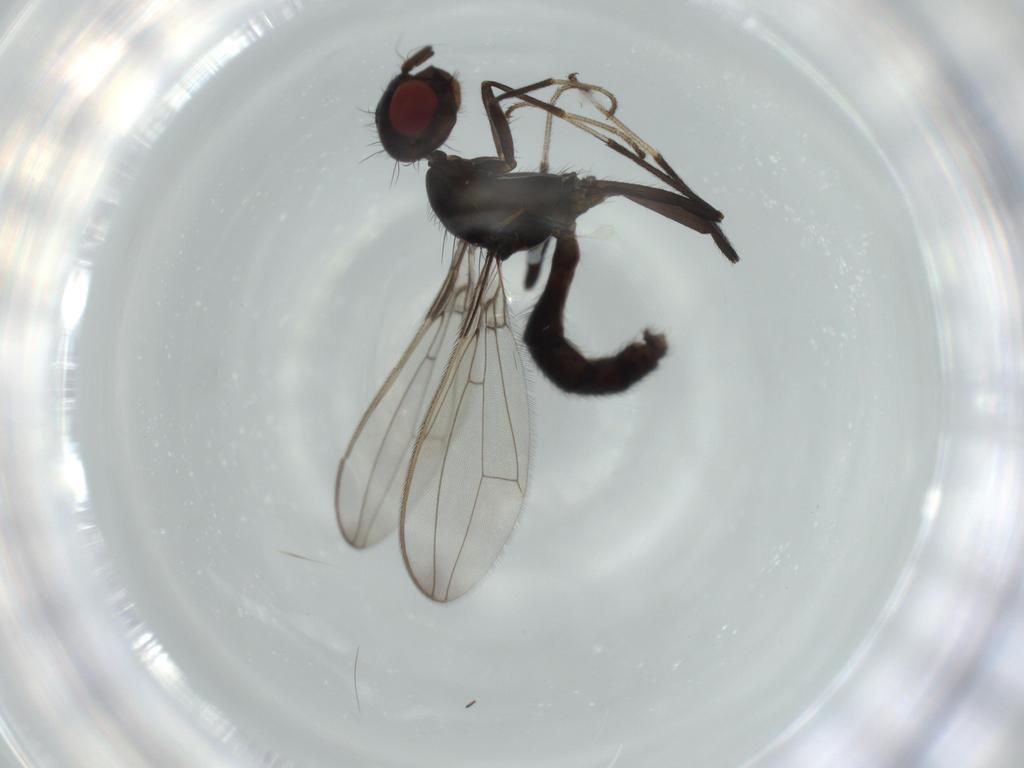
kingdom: Animalia
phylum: Arthropoda
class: Insecta
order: Diptera
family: Richardiidae
